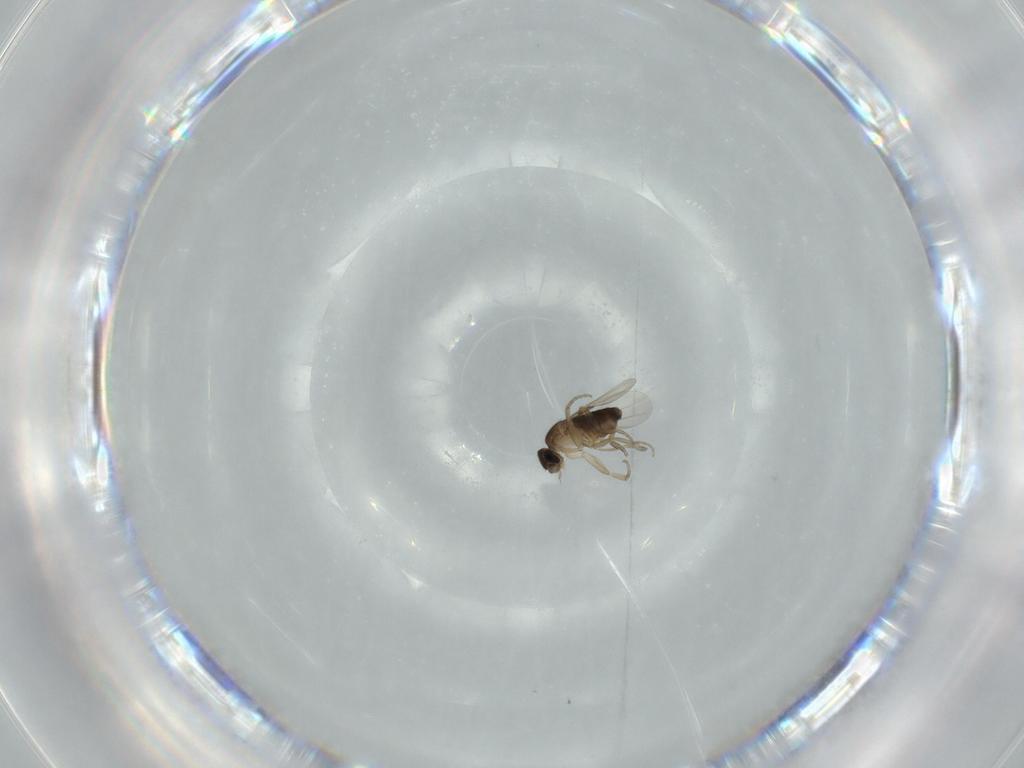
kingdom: Animalia
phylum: Arthropoda
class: Insecta
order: Diptera
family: Phoridae
